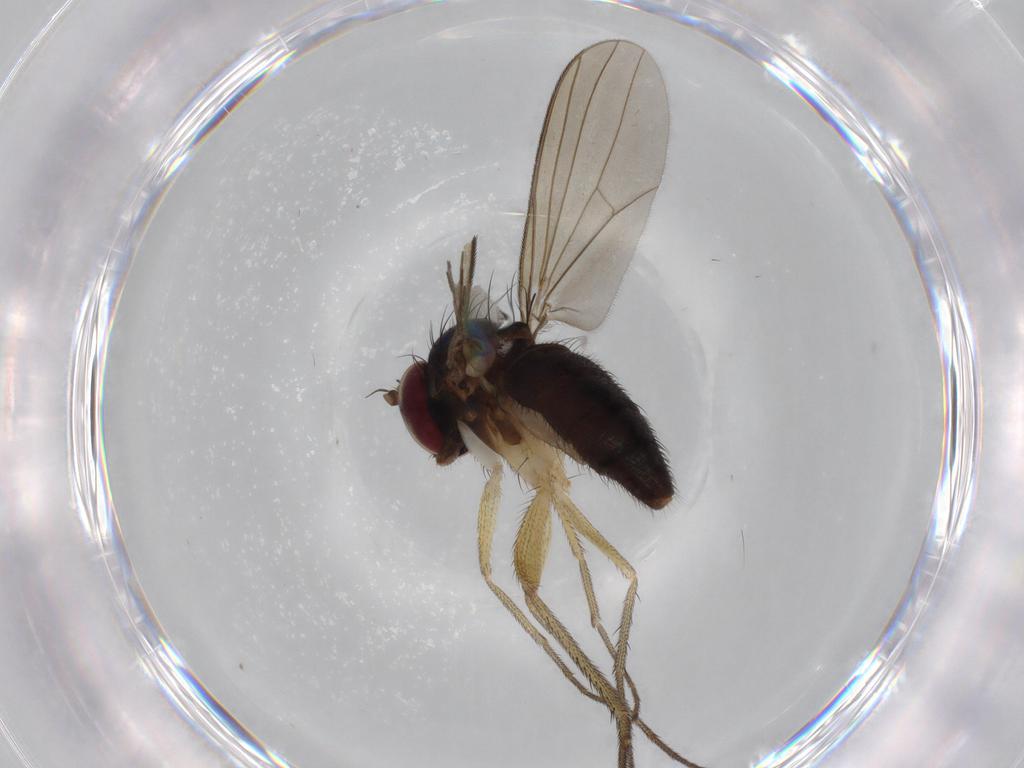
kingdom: Animalia
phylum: Arthropoda
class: Insecta
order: Diptera
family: Dolichopodidae
